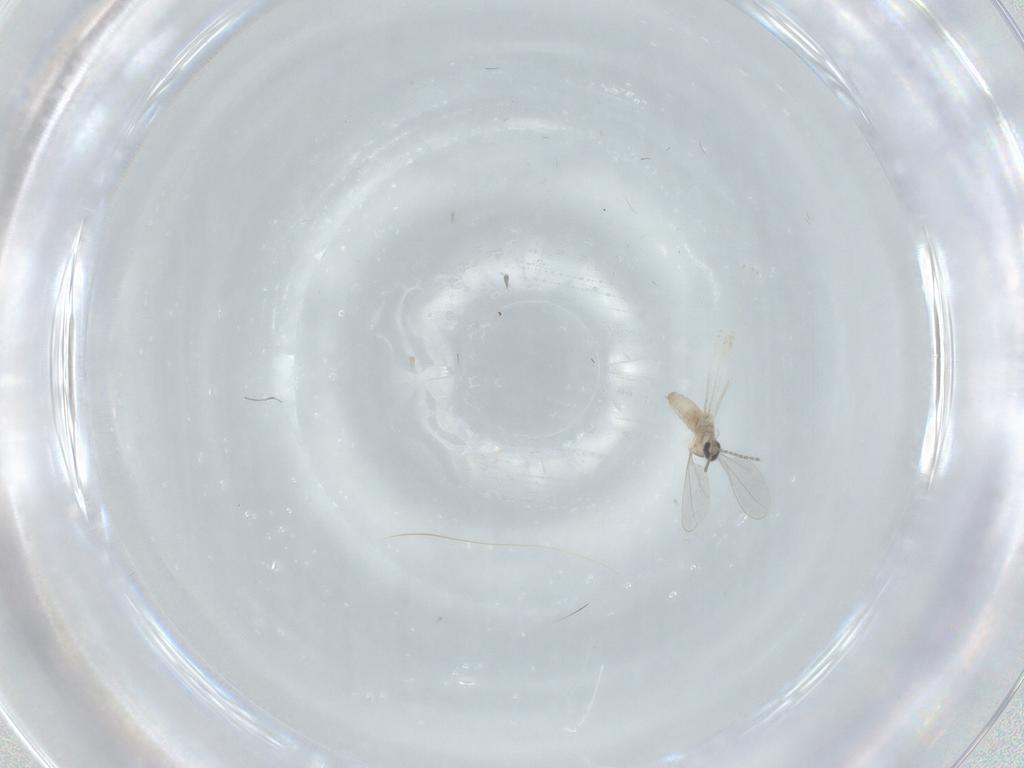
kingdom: Animalia
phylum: Arthropoda
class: Insecta
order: Diptera
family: Cecidomyiidae
